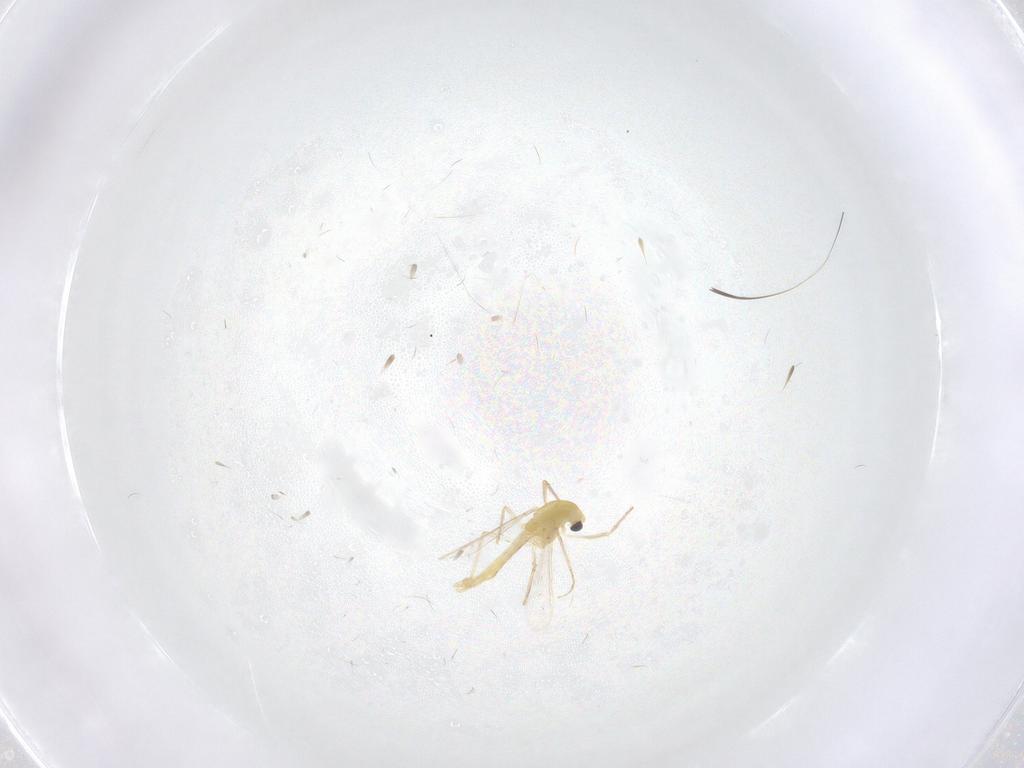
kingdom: Animalia
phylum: Arthropoda
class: Insecta
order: Diptera
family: Chironomidae
